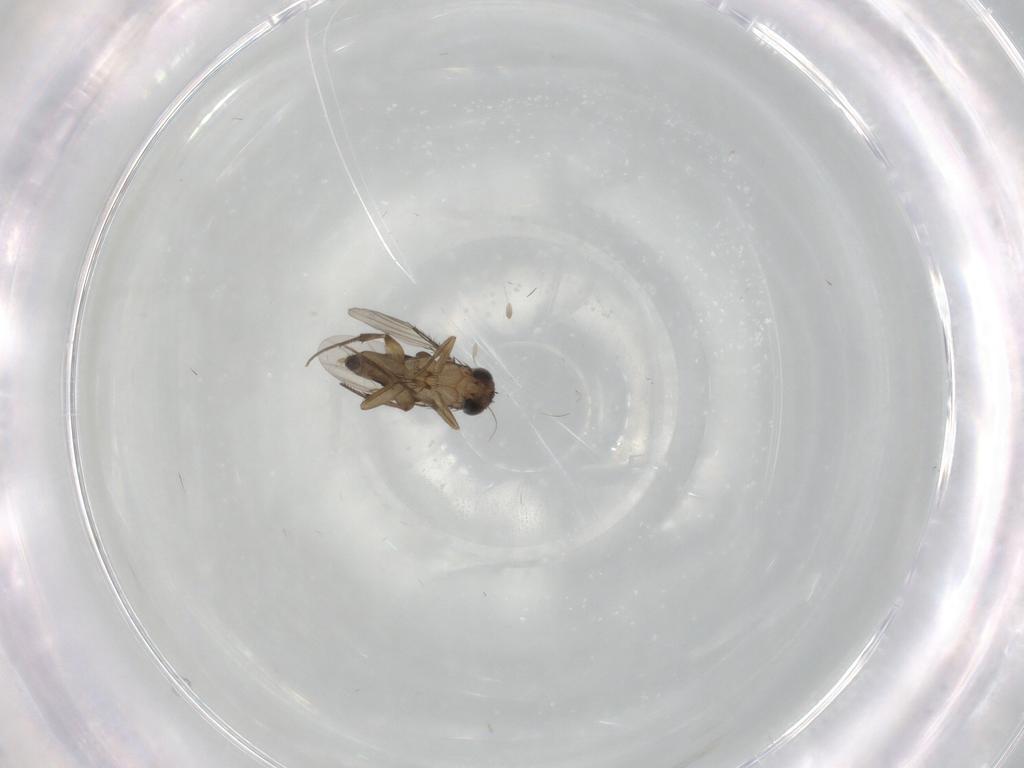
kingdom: Animalia
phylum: Arthropoda
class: Insecta
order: Diptera
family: Phoridae
